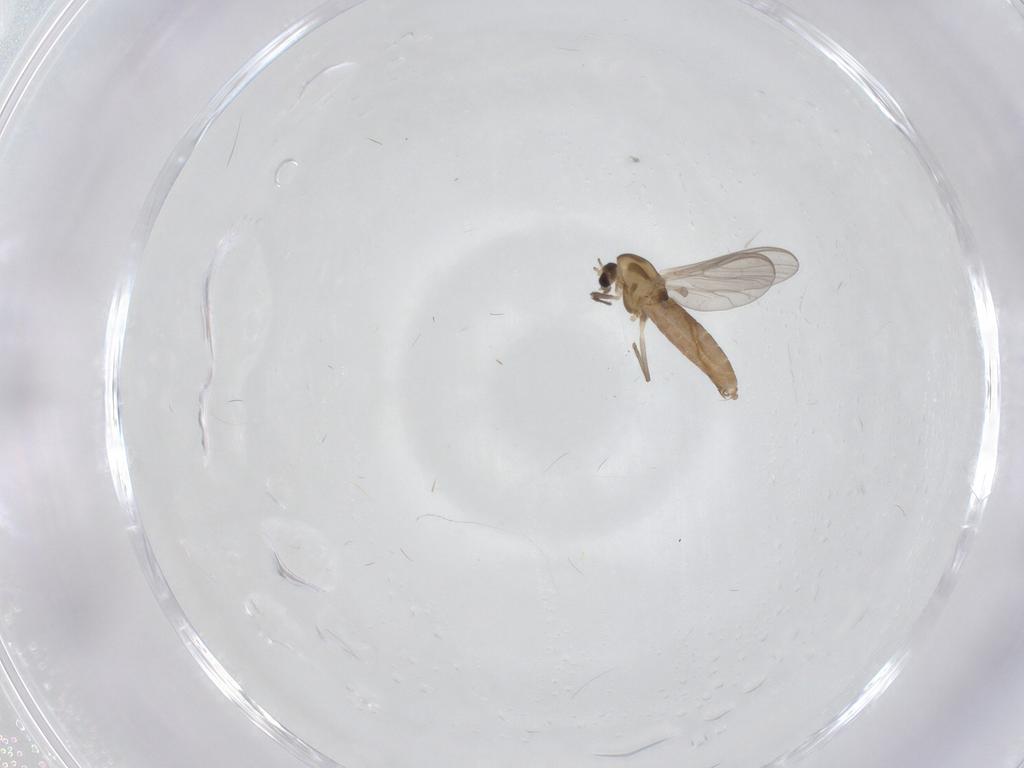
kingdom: Animalia
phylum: Arthropoda
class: Insecta
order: Diptera
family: Chironomidae
